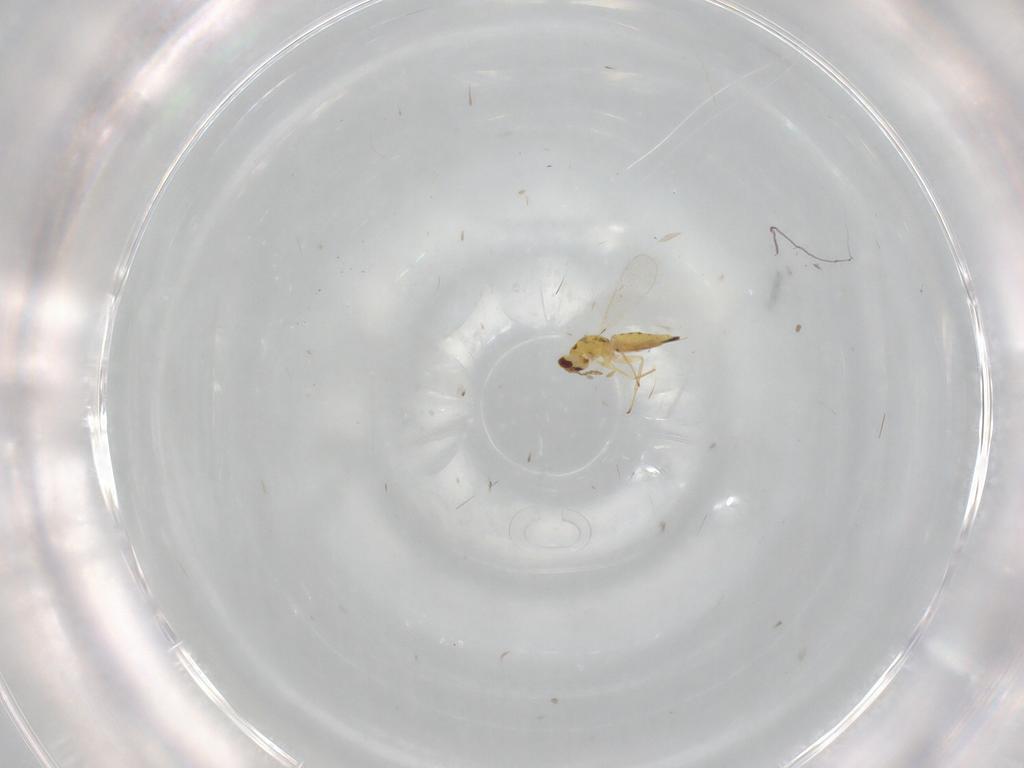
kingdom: Animalia
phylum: Arthropoda
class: Insecta
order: Hymenoptera
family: Eulophidae
